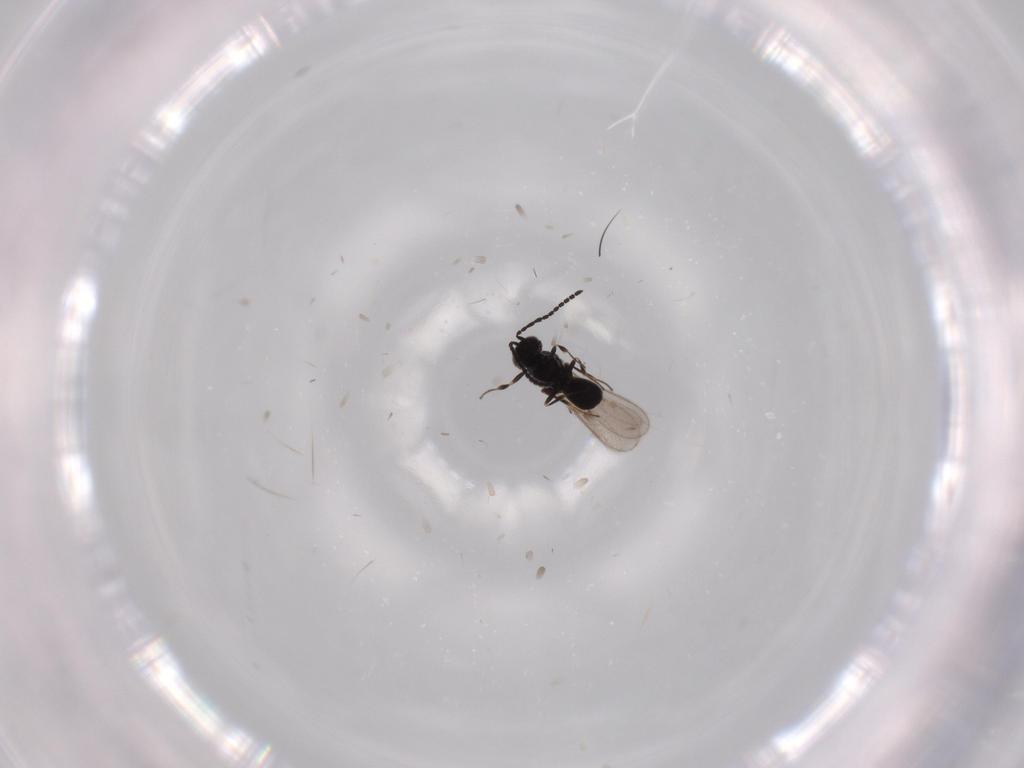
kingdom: Animalia
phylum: Arthropoda
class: Insecta
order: Hymenoptera
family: Scelionidae
